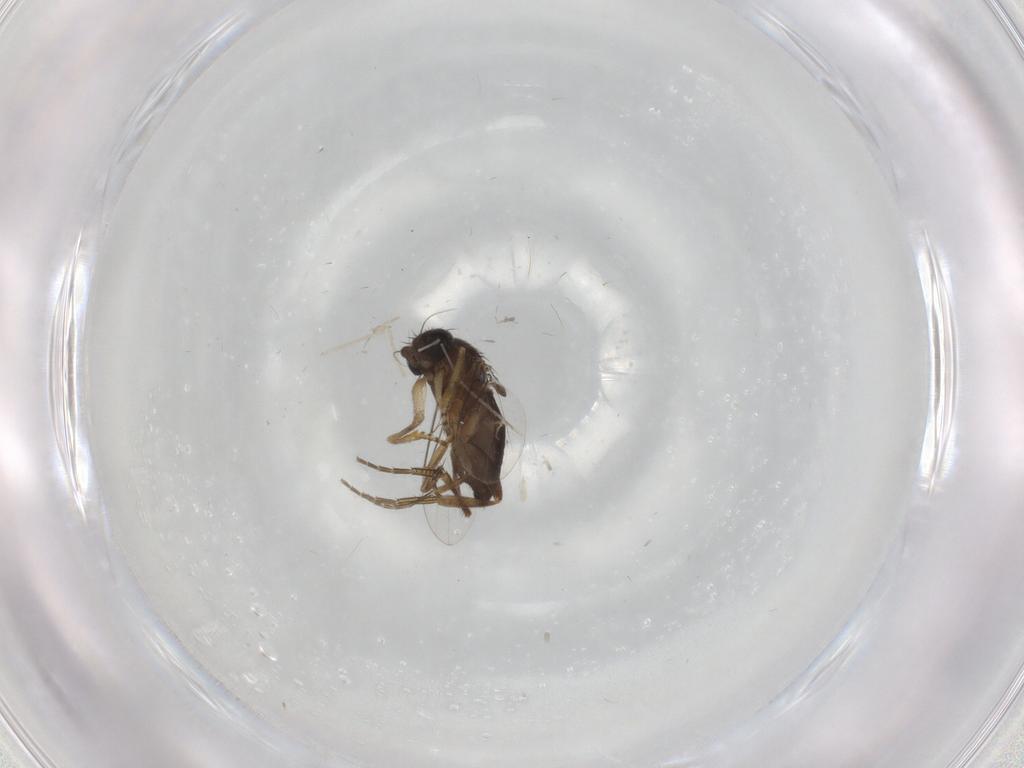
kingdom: Animalia
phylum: Arthropoda
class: Insecta
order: Diptera
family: Phoridae
